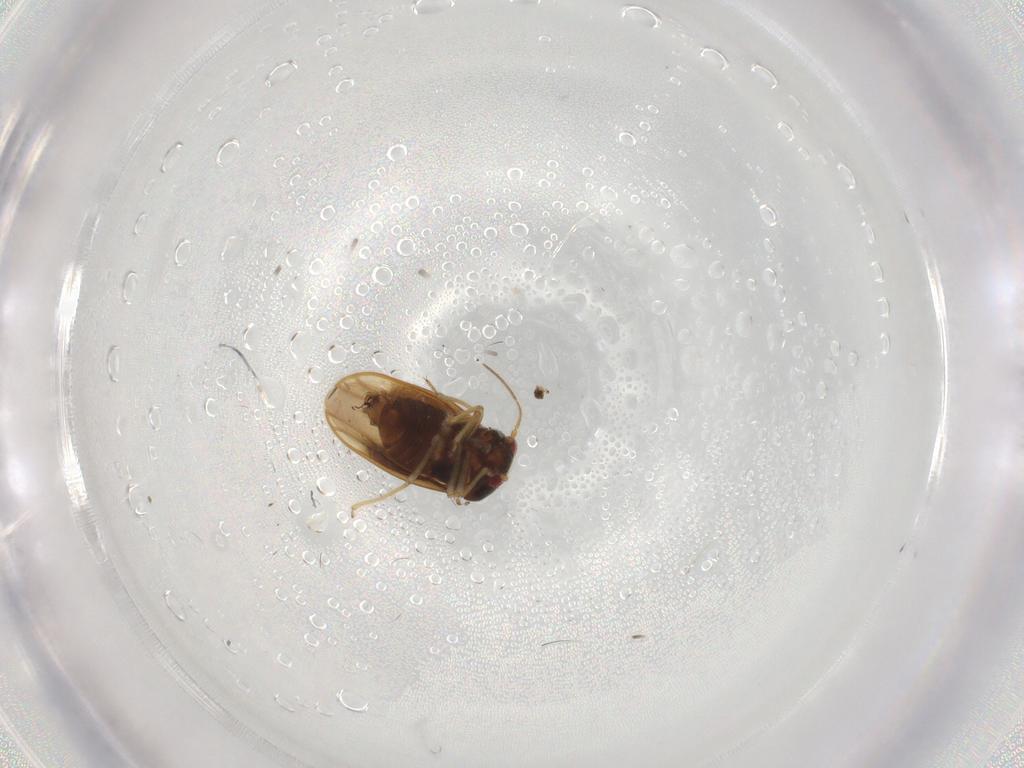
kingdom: Animalia
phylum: Arthropoda
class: Insecta
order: Hemiptera
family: Schizopteridae
